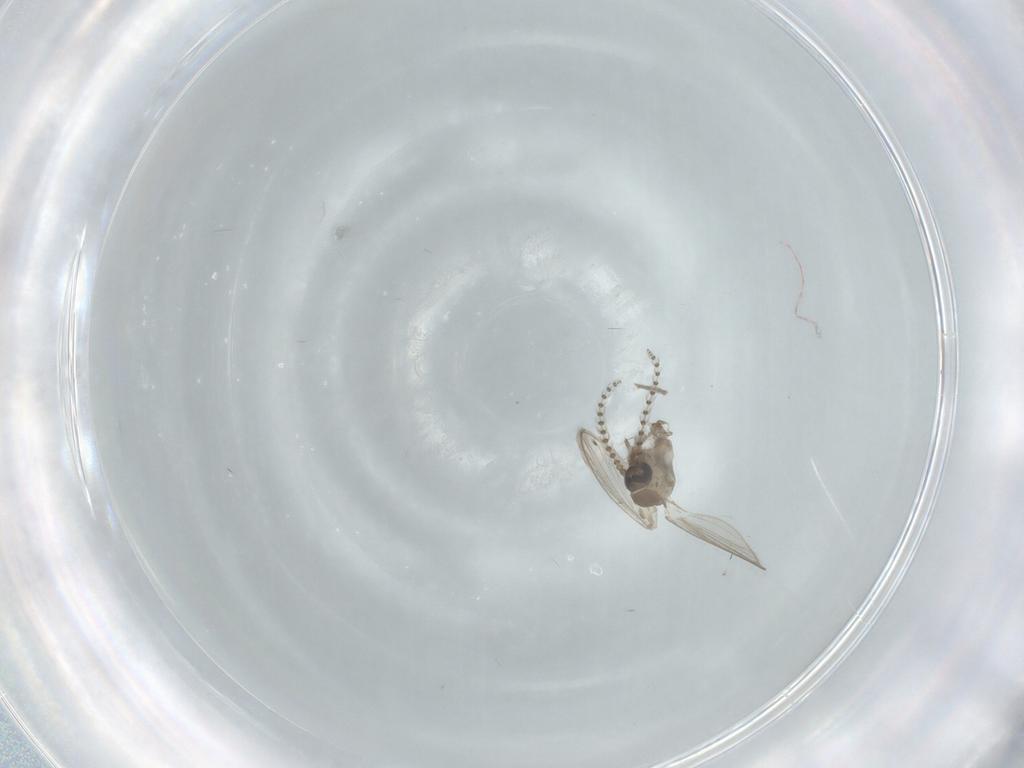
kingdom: Animalia
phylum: Arthropoda
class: Insecta
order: Diptera
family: Psychodidae
